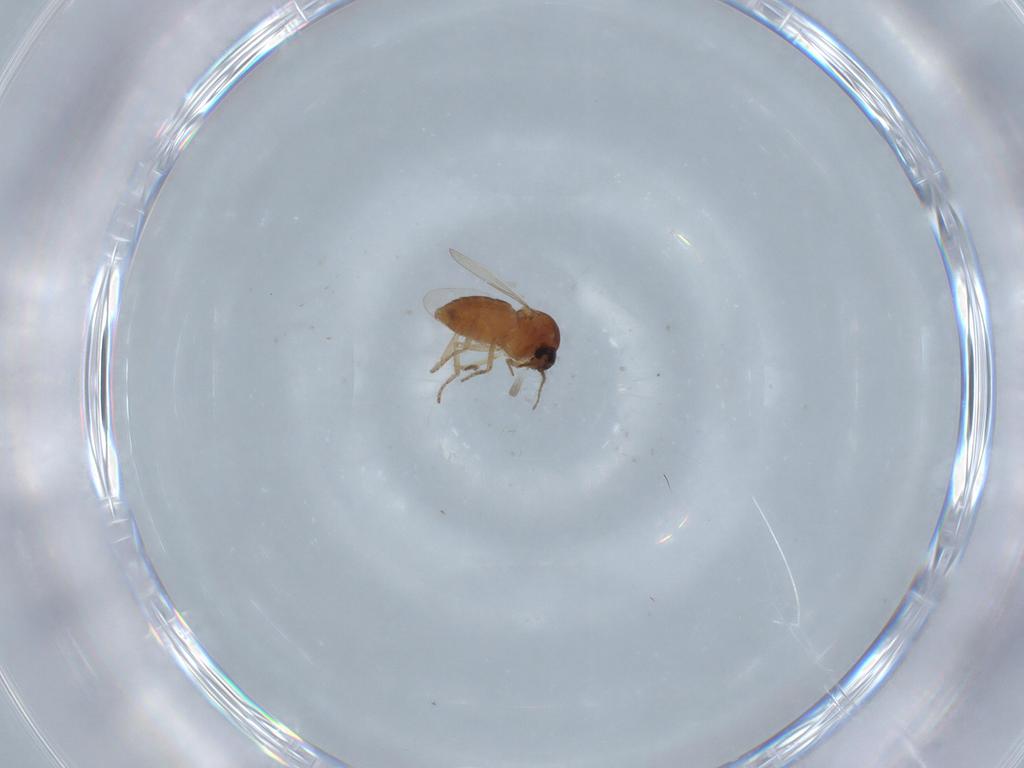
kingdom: Animalia
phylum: Arthropoda
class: Insecta
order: Diptera
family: Ceratopogonidae
